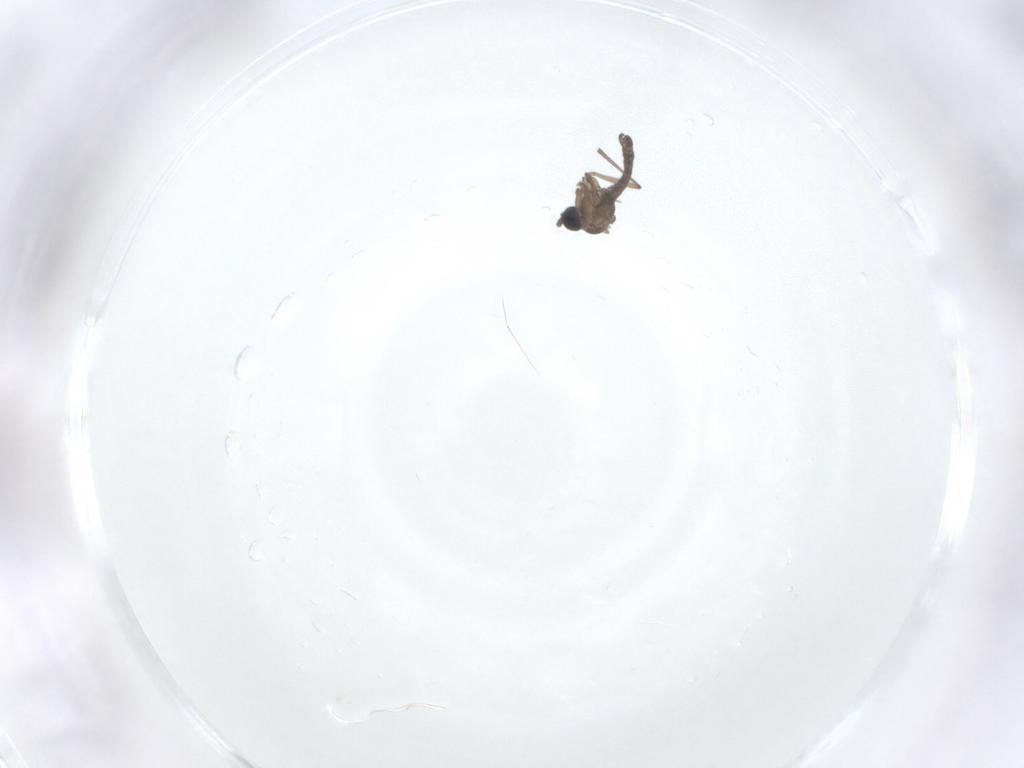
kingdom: Animalia
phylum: Arthropoda
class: Insecta
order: Diptera
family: Sciaridae
